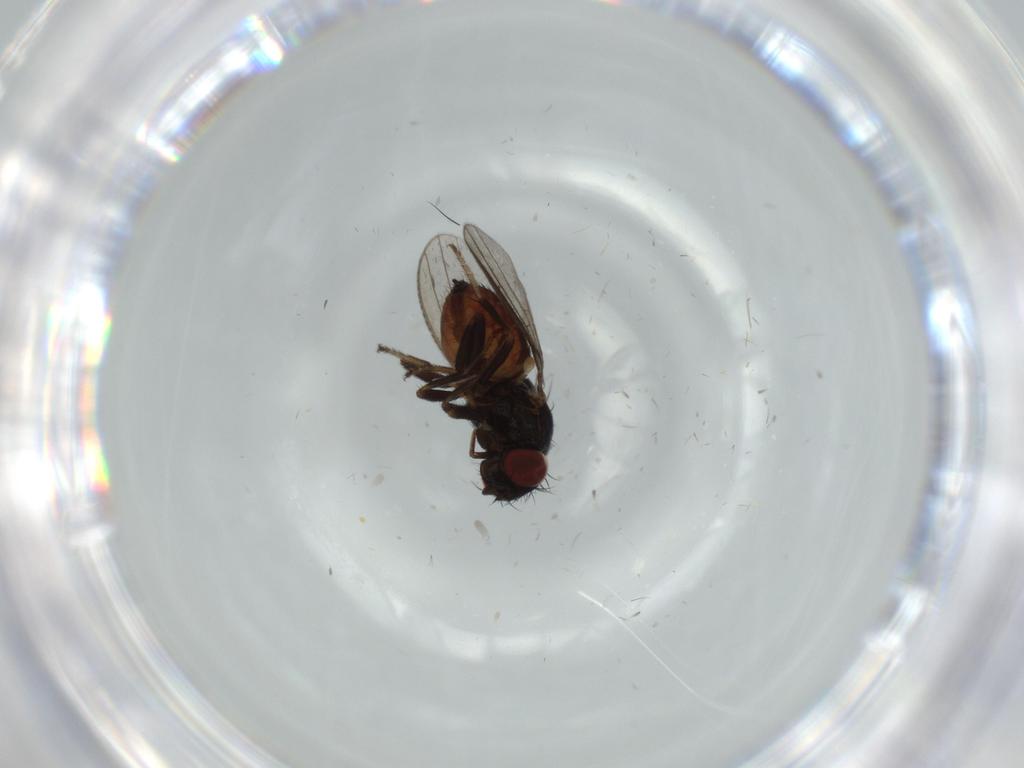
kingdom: Animalia
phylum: Arthropoda
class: Insecta
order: Diptera
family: Milichiidae
